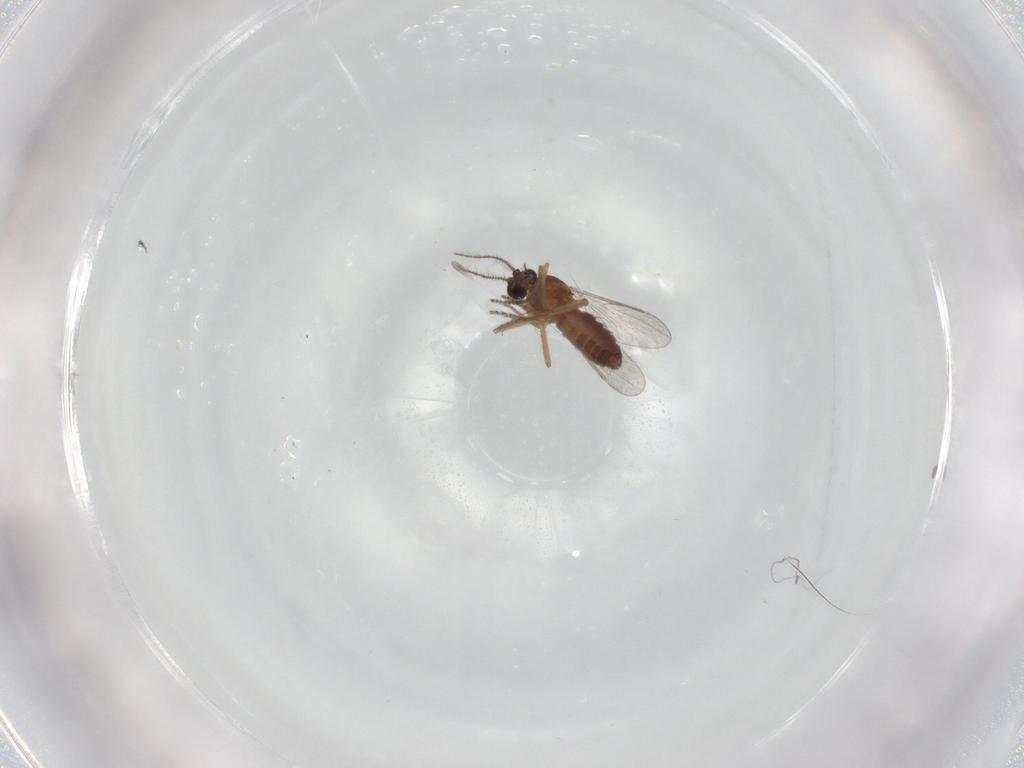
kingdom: Animalia
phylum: Arthropoda
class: Insecta
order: Diptera
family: Ceratopogonidae
